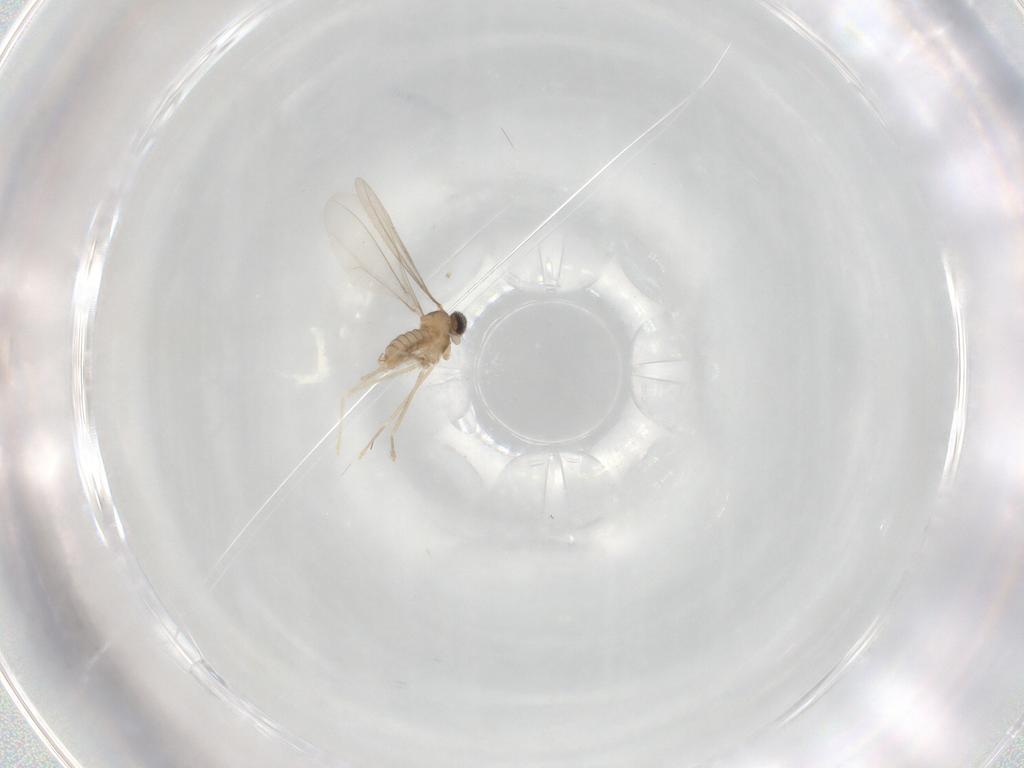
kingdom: Animalia
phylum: Arthropoda
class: Insecta
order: Diptera
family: Cecidomyiidae
